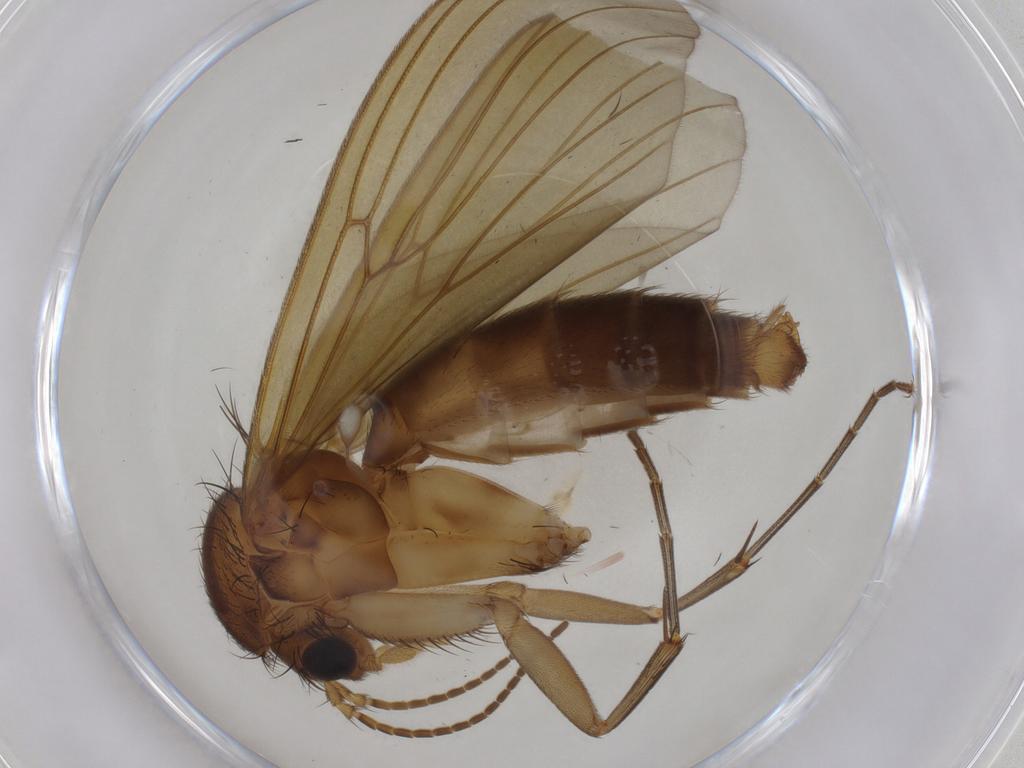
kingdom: Animalia
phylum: Arthropoda
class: Insecta
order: Diptera
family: Cecidomyiidae
